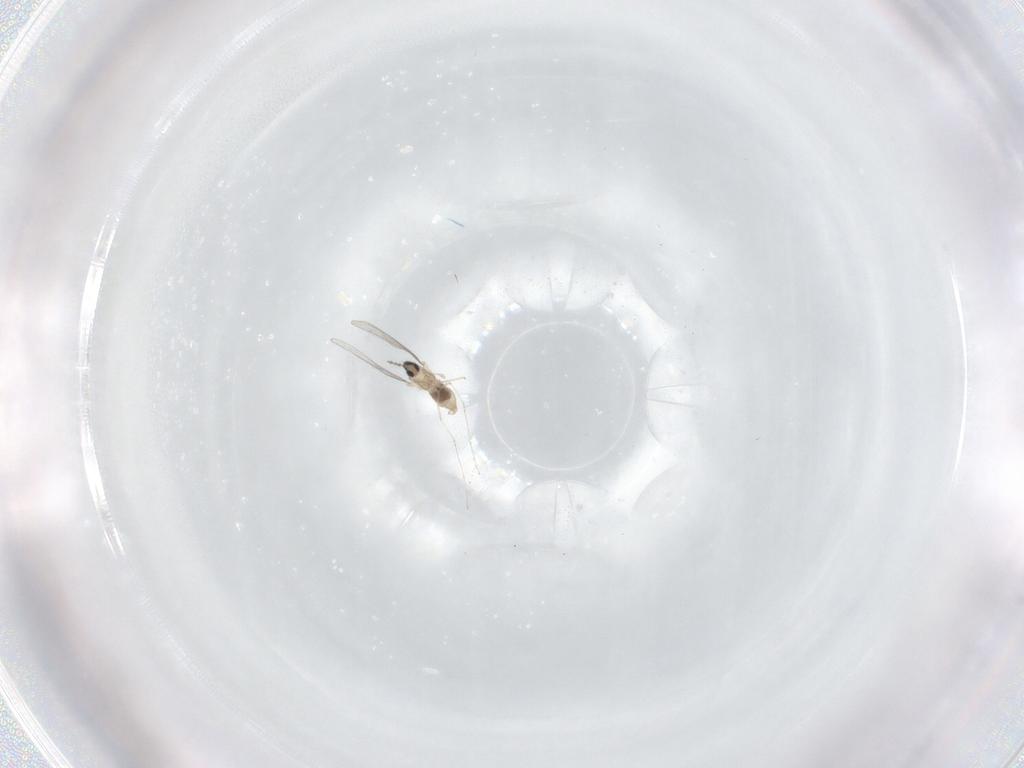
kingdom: Animalia
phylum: Arthropoda
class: Insecta
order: Diptera
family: Cecidomyiidae
